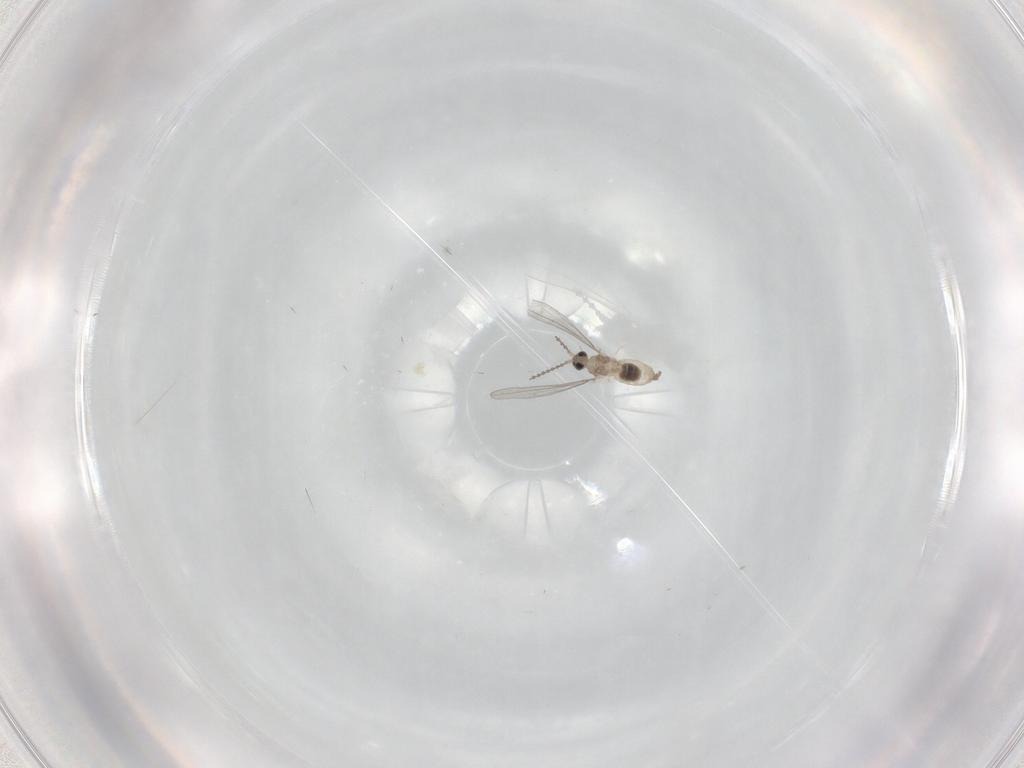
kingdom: Animalia
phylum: Arthropoda
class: Insecta
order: Diptera
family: Cecidomyiidae
